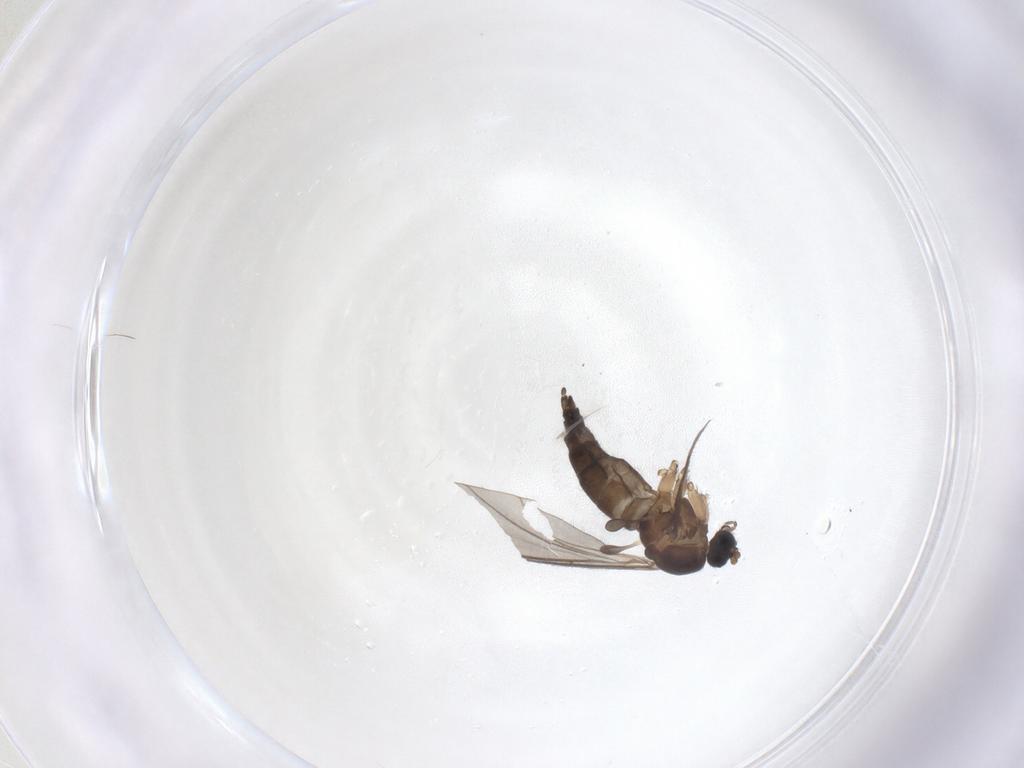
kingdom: Animalia
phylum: Arthropoda
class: Insecta
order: Diptera
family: Sciaridae
